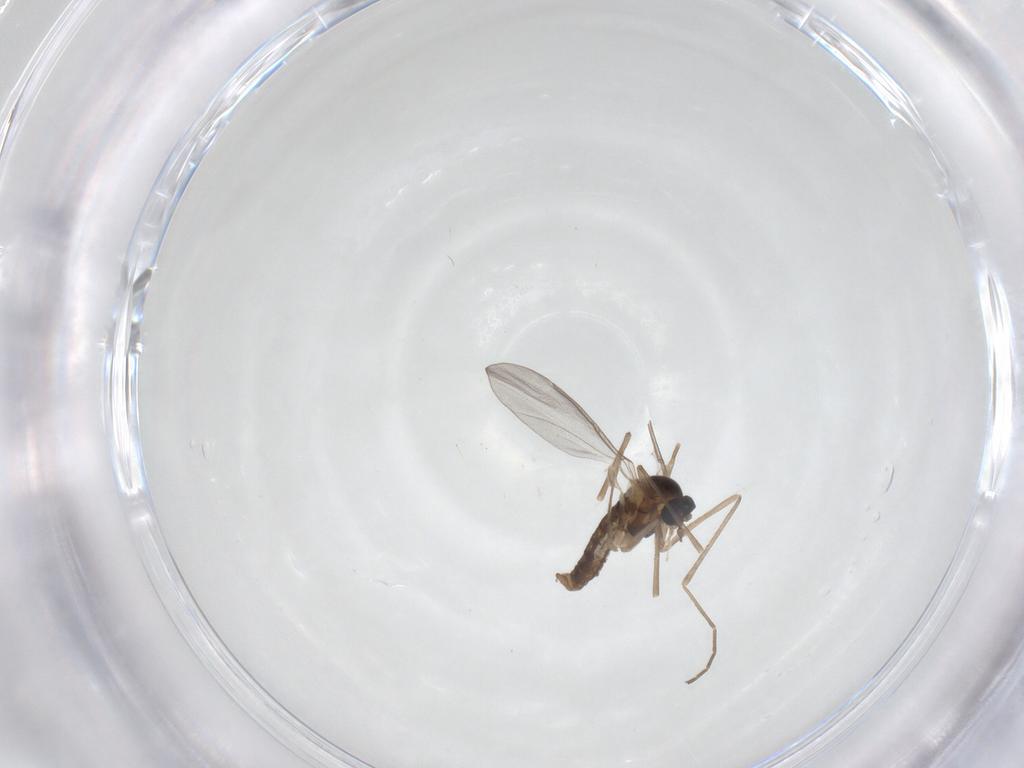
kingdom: Animalia
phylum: Arthropoda
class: Insecta
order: Diptera
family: Cecidomyiidae
